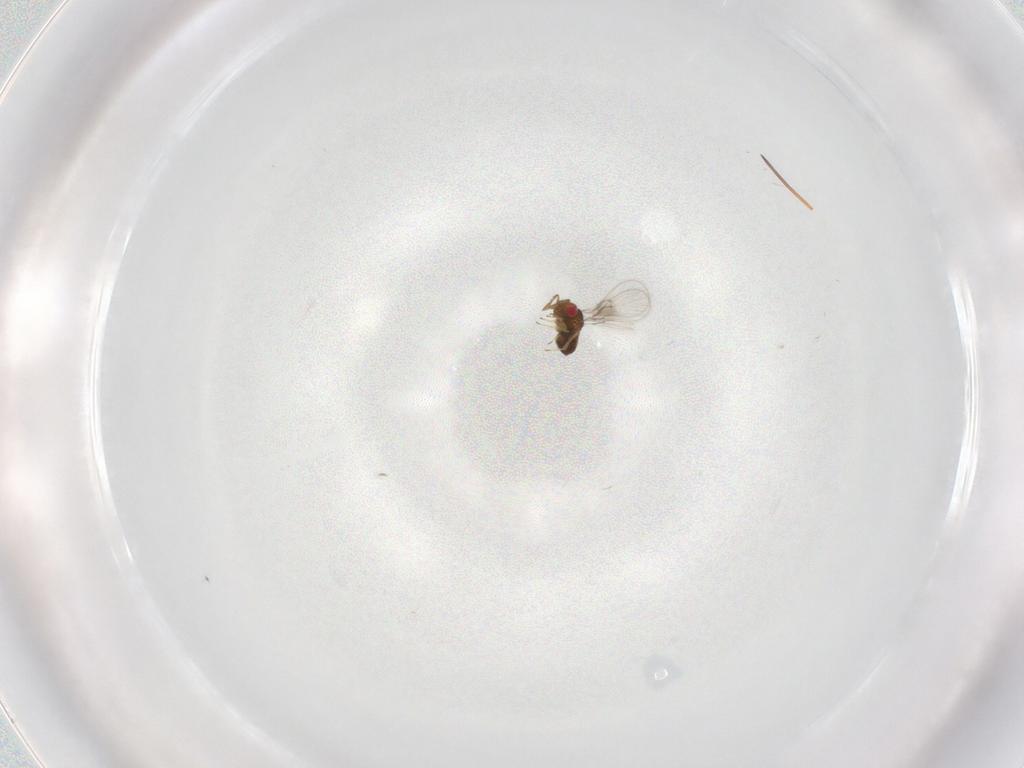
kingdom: Animalia
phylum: Arthropoda
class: Insecta
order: Hymenoptera
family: Trichogrammatidae
